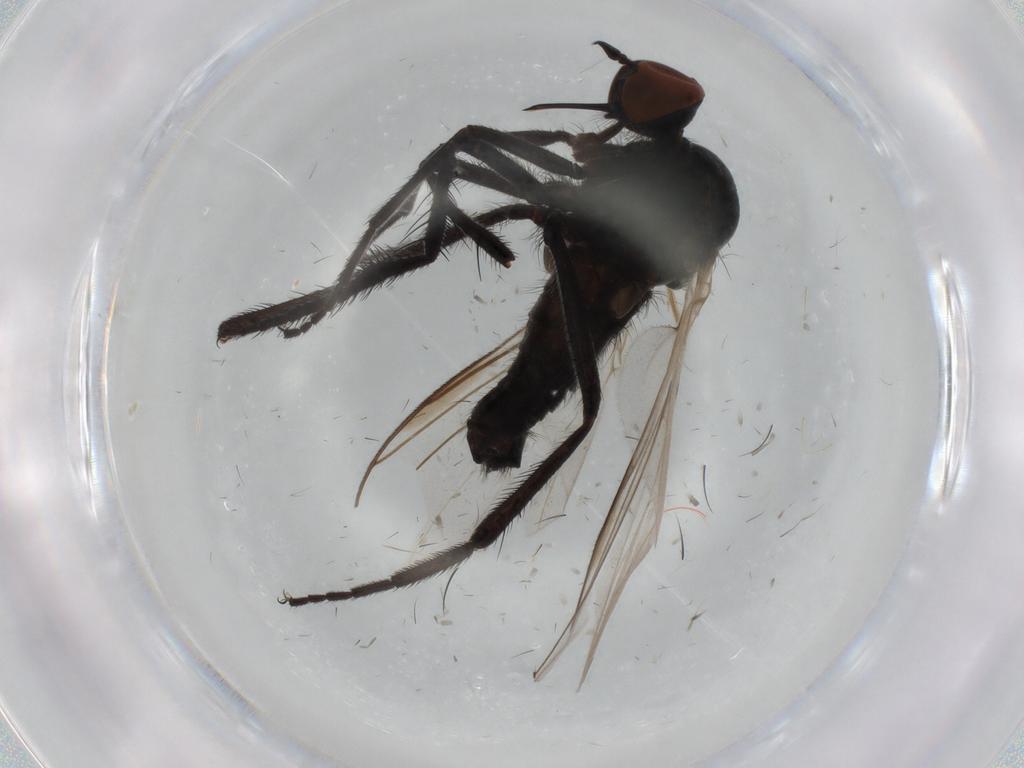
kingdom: Animalia
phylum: Arthropoda
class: Insecta
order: Diptera
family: Empididae
